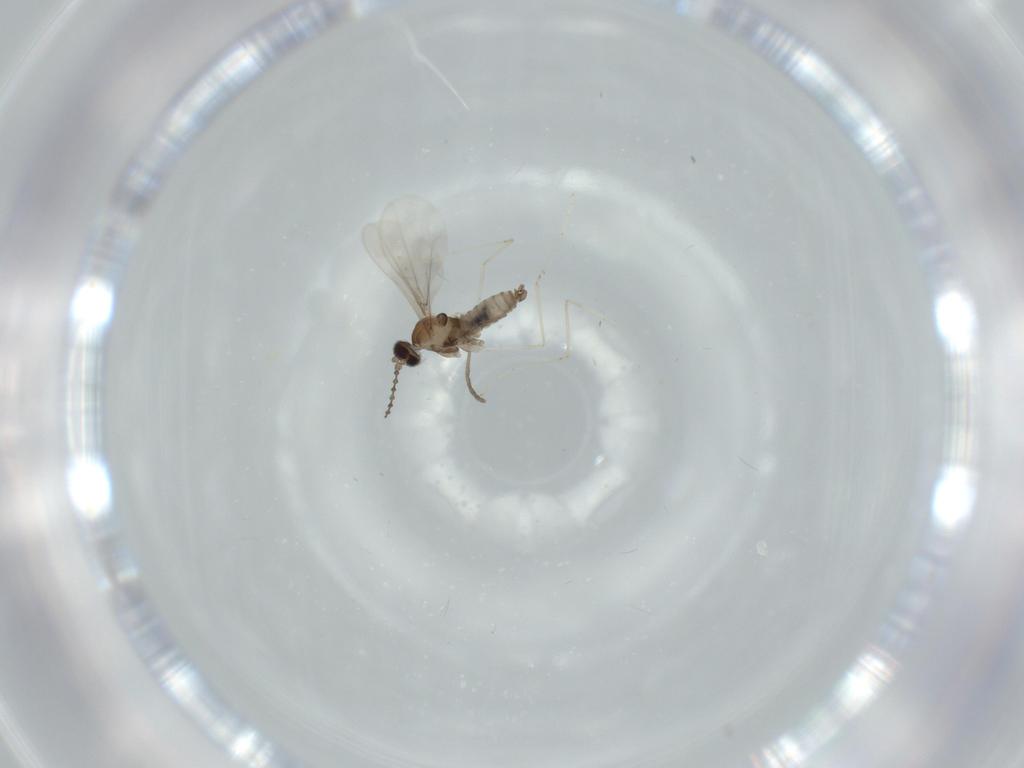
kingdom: Animalia
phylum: Arthropoda
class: Insecta
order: Diptera
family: Cecidomyiidae
